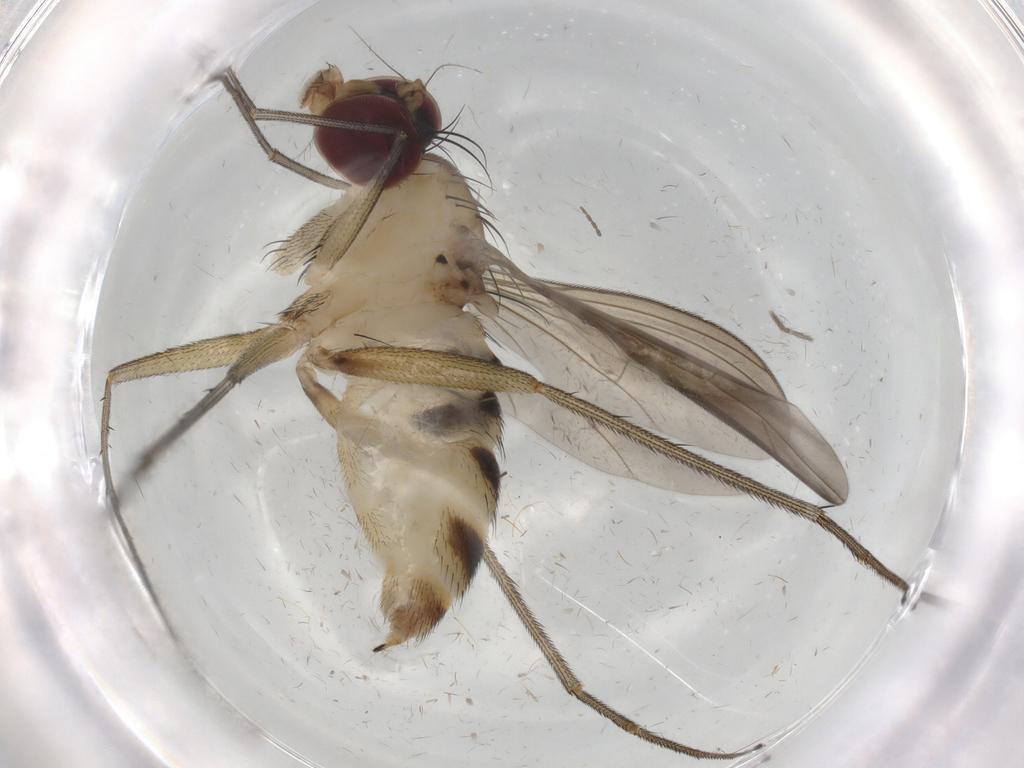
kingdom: Animalia
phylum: Arthropoda
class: Insecta
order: Diptera
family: Dolichopodidae
